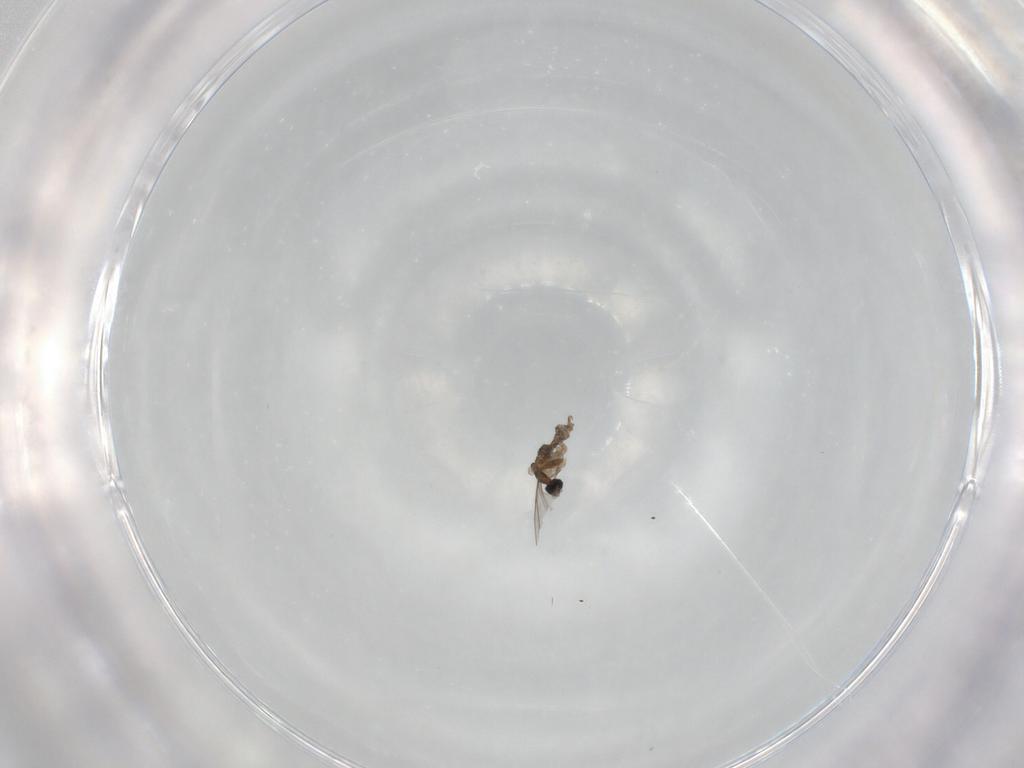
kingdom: Animalia
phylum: Arthropoda
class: Insecta
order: Diptera
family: Cecidomyiidae
